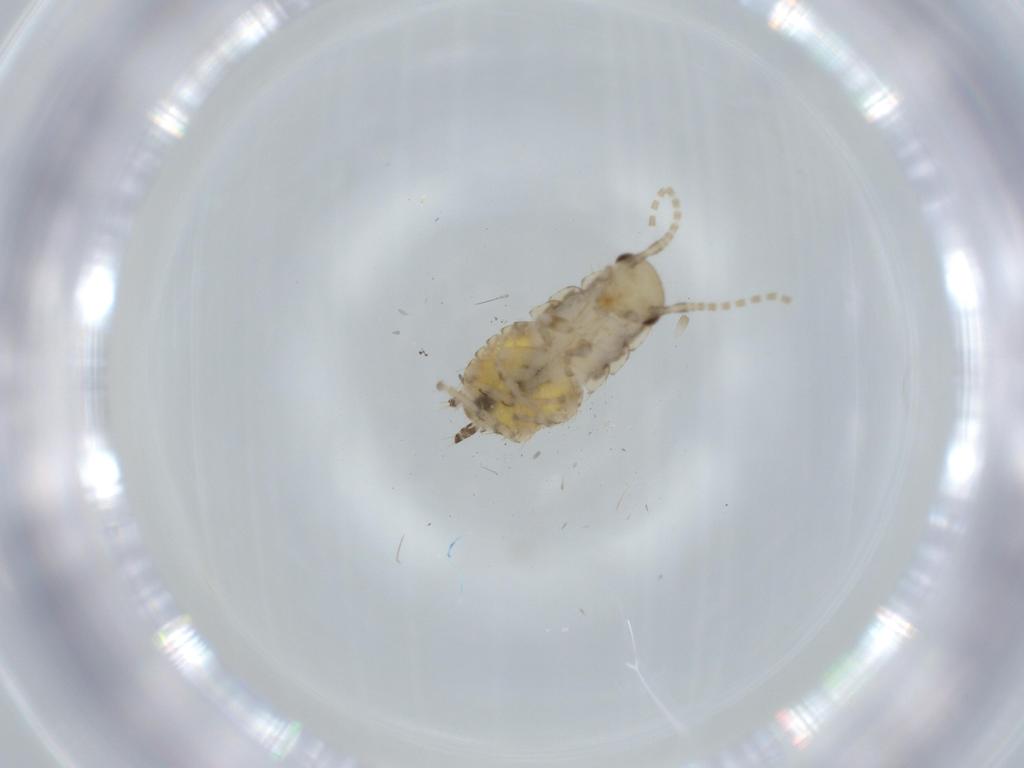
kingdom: Animalia
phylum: Arthropoda
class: Insecta
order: Blattodea
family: Ectobiidae
